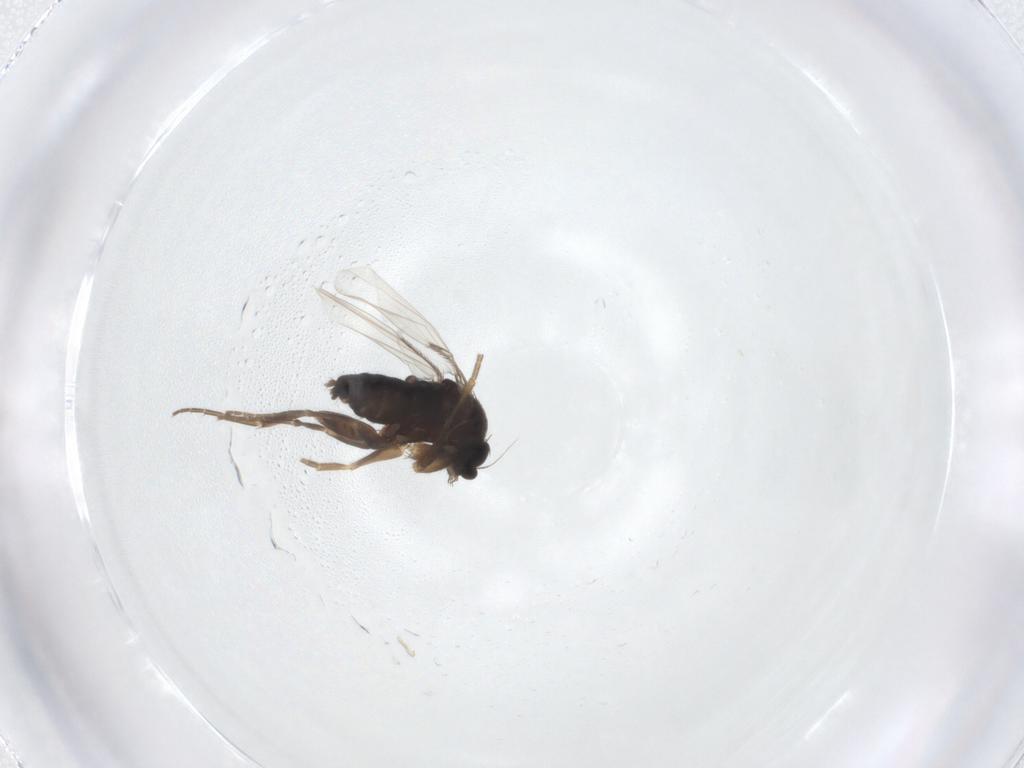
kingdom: Animalia
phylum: Arthropoda
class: Insecta
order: Diptera
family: Phoridae
